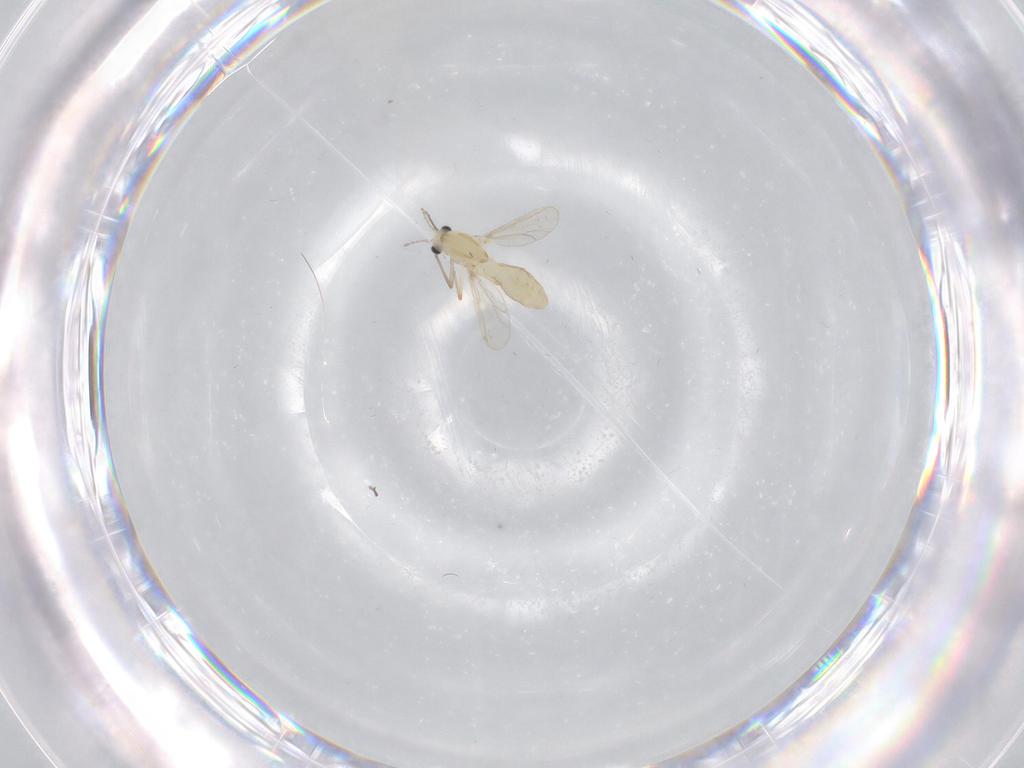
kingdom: Animalia
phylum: Arthropoda
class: Insecta
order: Diptera
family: Chironomidae
